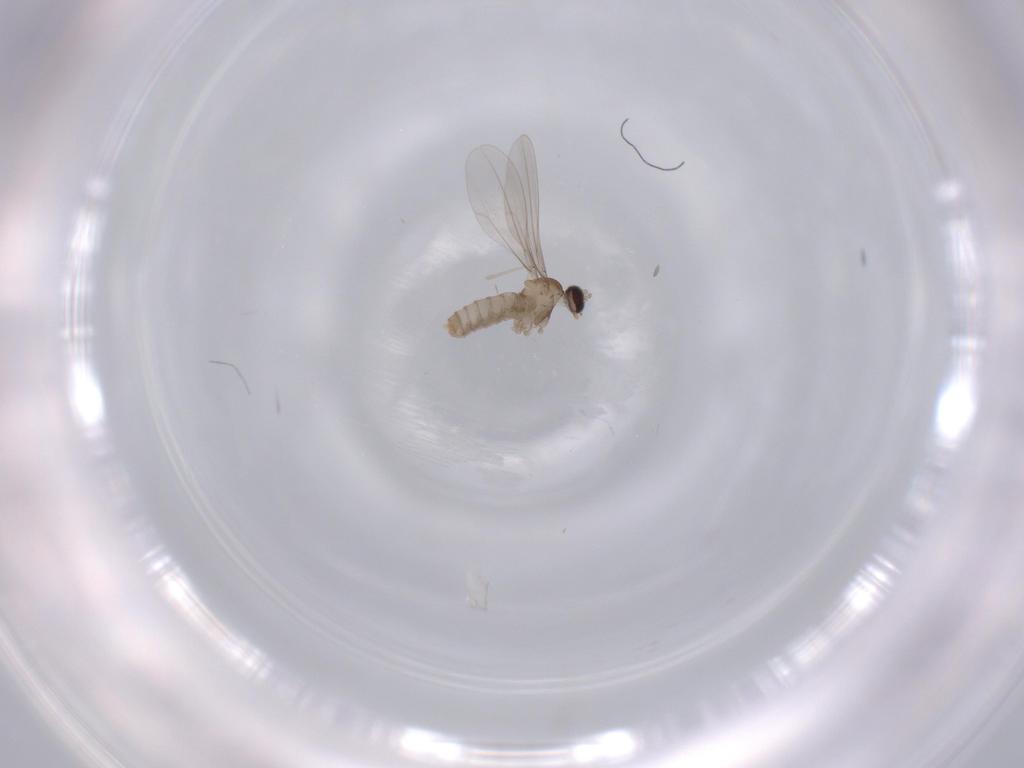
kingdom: Animalia
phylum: Arthropoda
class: Insecta
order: Diptera
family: Cecidomyiidae
